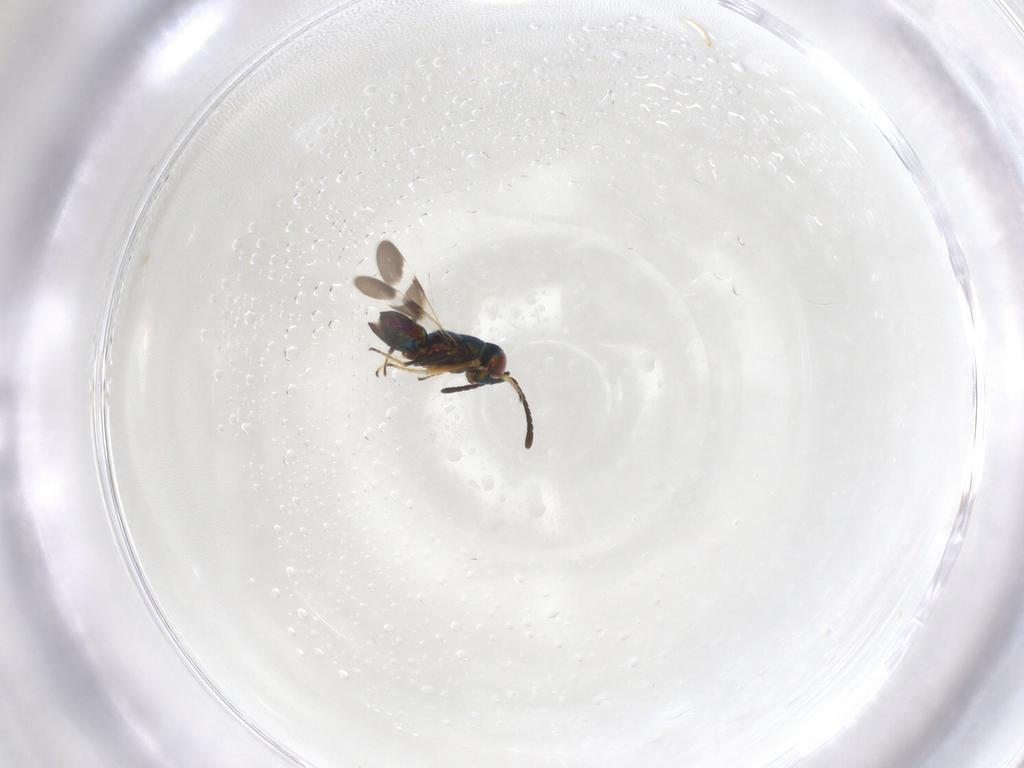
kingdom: Animalia
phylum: Arthropoda
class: Insecta
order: Hymenoptera
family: Encyrtidae
